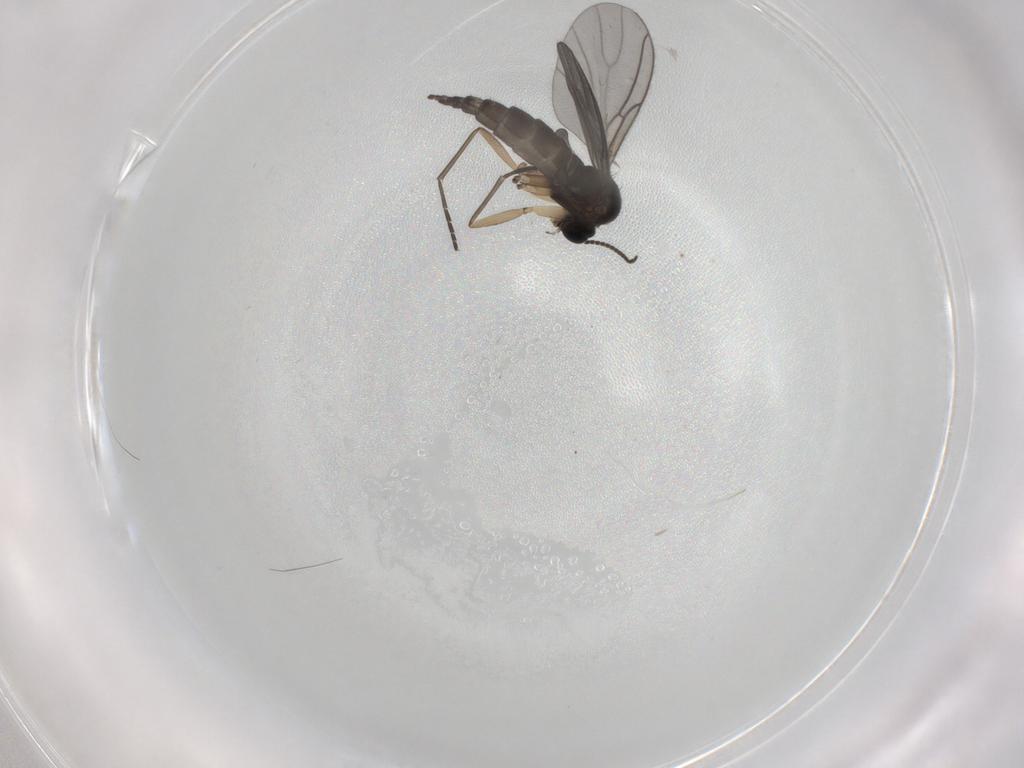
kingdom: Animalia
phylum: Arthropoda
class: Insecta
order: Diptera
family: Sciaridae
